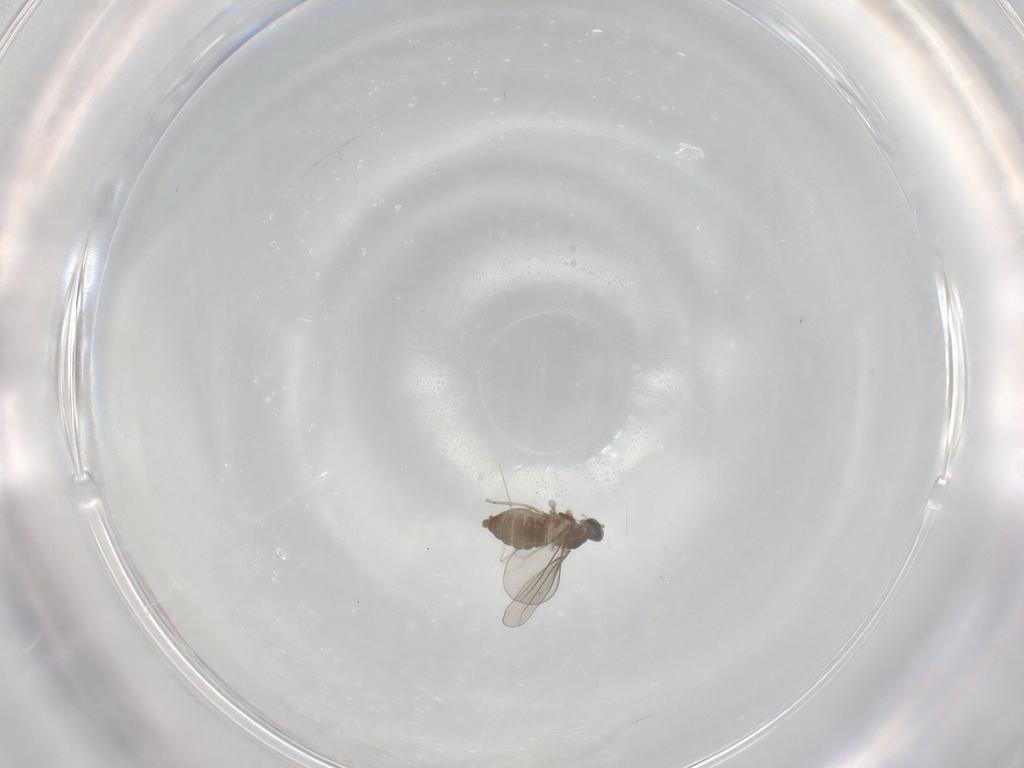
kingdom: Animalia
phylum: Arthropoda
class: Insecta
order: Diptera
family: Cecidomyiidae
